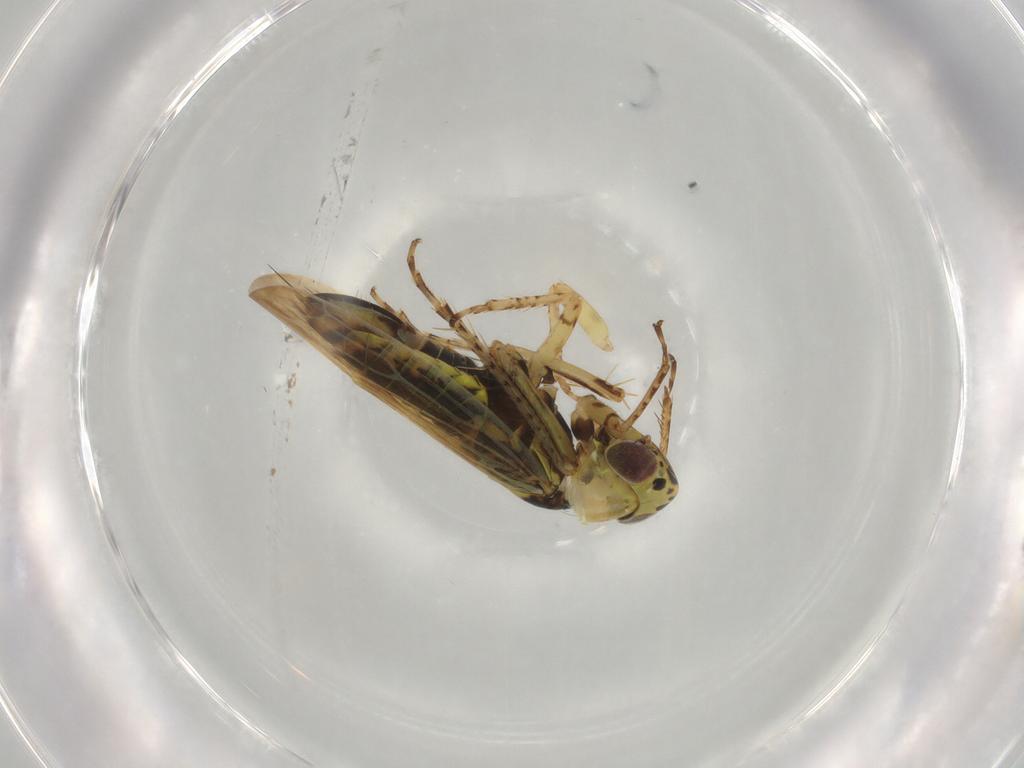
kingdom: Animalia
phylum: Arthropoda
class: Insecta
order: Hemiptera
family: Cicadellidae
